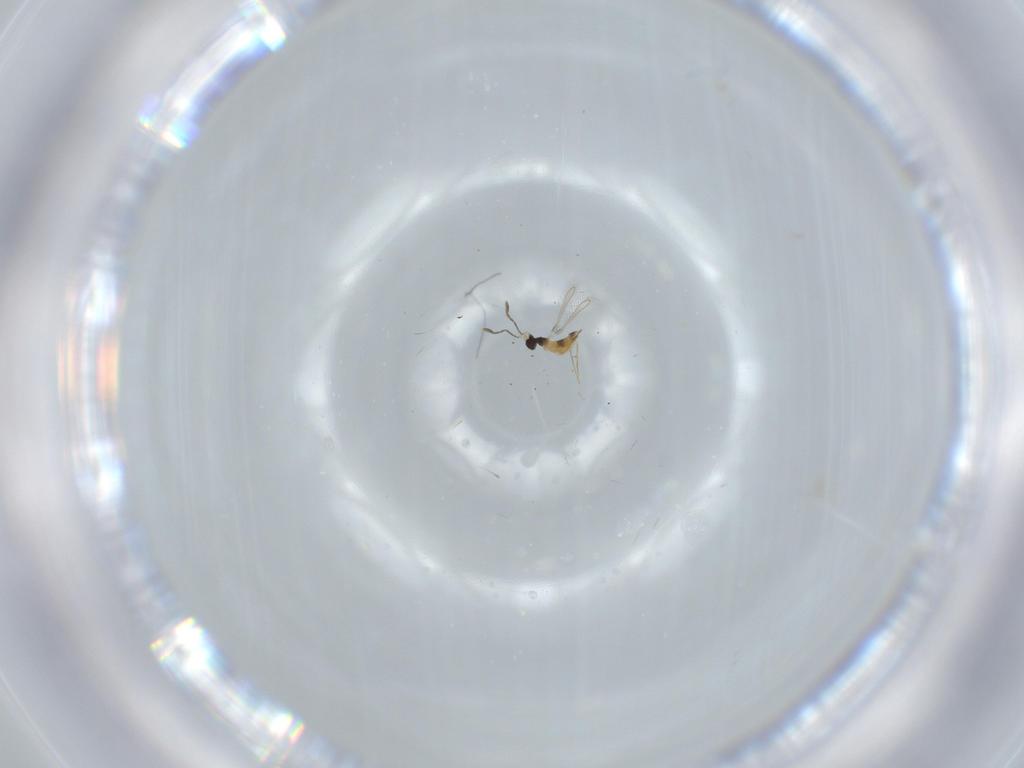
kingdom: Animalia
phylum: Arthropoda
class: Insecta
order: Hymenoptera
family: Mymaridae
